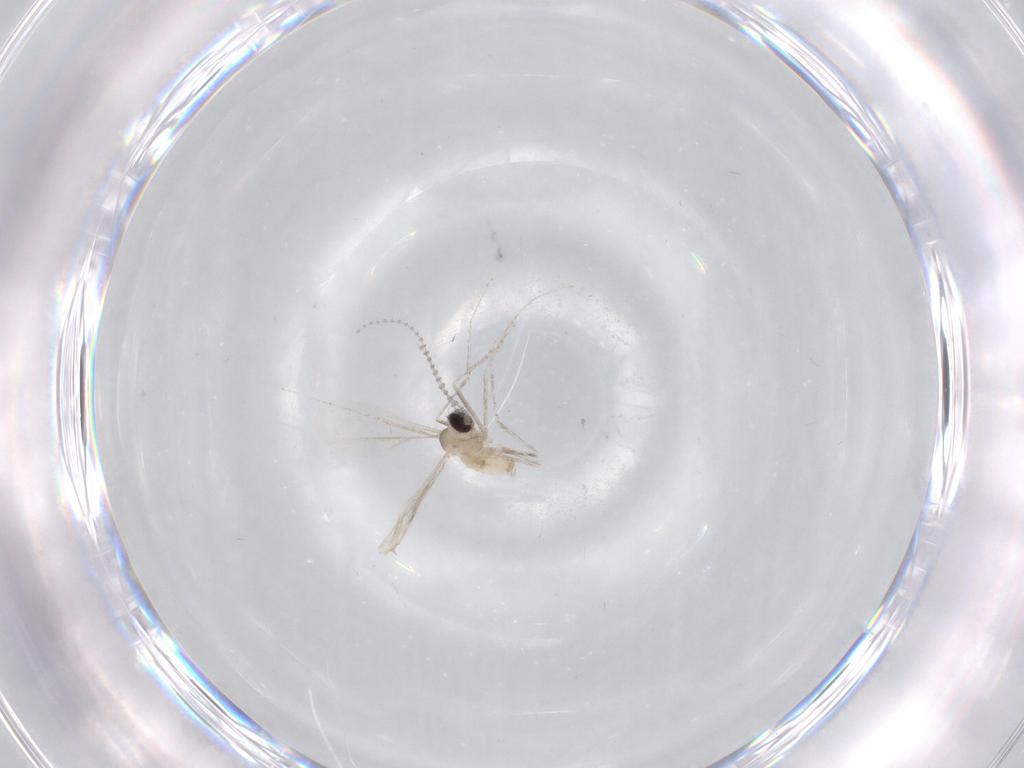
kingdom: Animalia
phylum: Arthropoda
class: Insecta
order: Diptera
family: Cecidomyiidae
